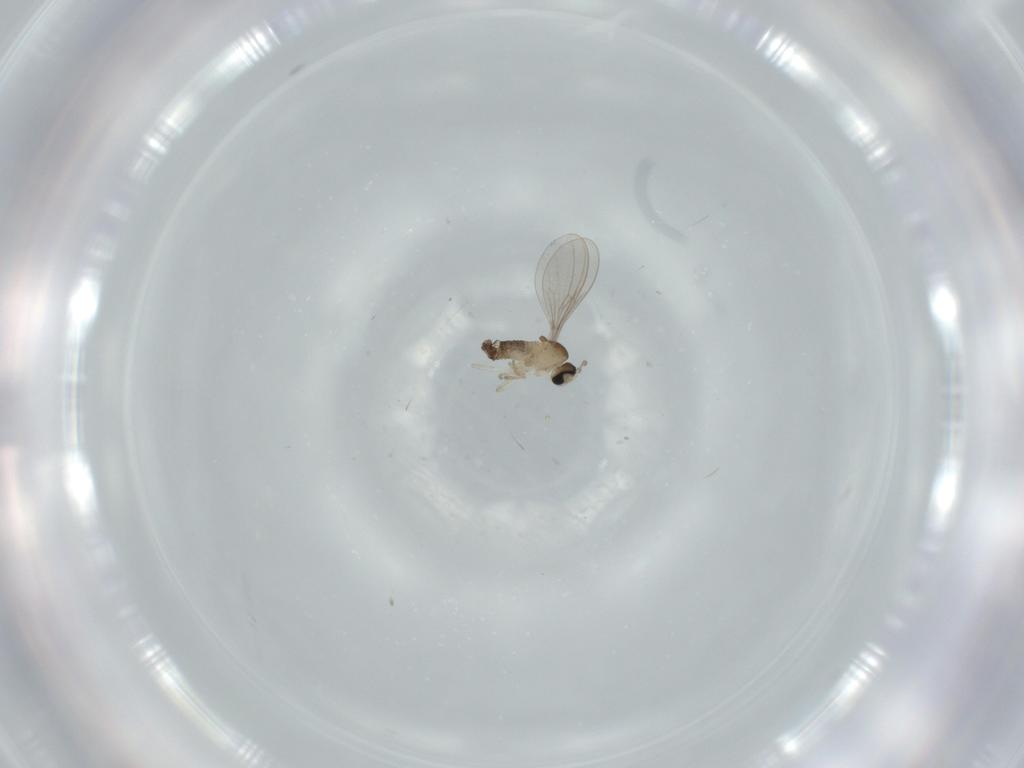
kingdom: Animalia
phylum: Arthropoda
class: Insecta
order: Diptera
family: Cecidomyiidae
